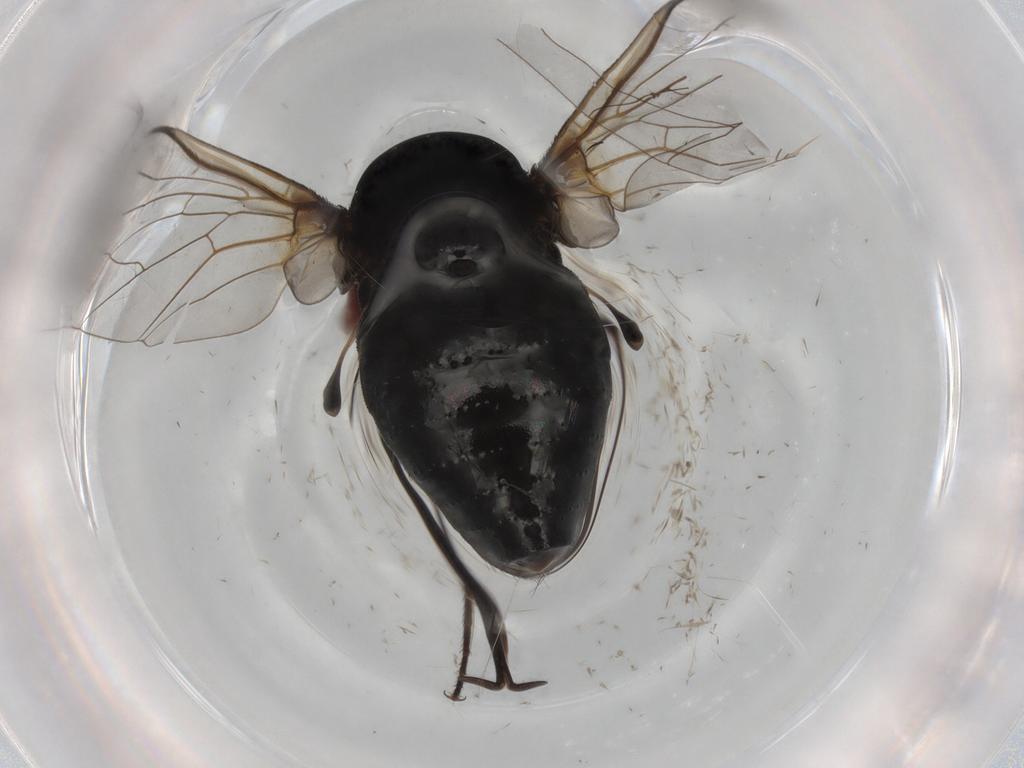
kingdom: Animalia
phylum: Arthropoda
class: Insecta
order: Diptera
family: Bombyliidae
